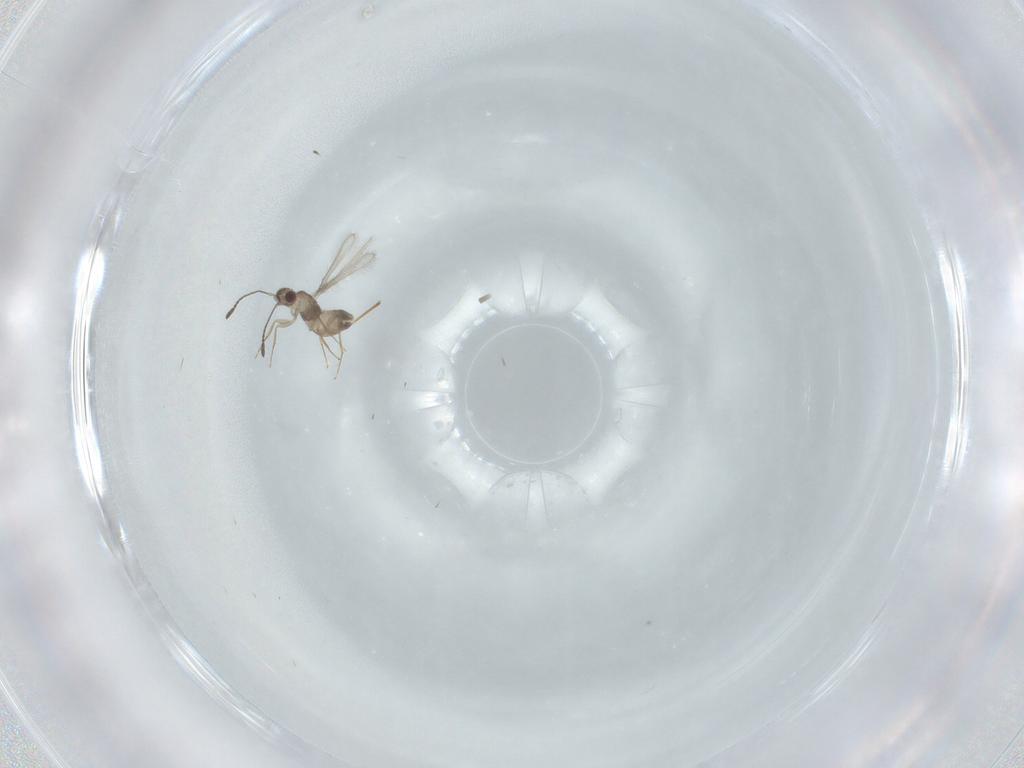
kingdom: Animalia
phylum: Arthropoda
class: Insecta
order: Hymenoptera
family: Mymaridae
